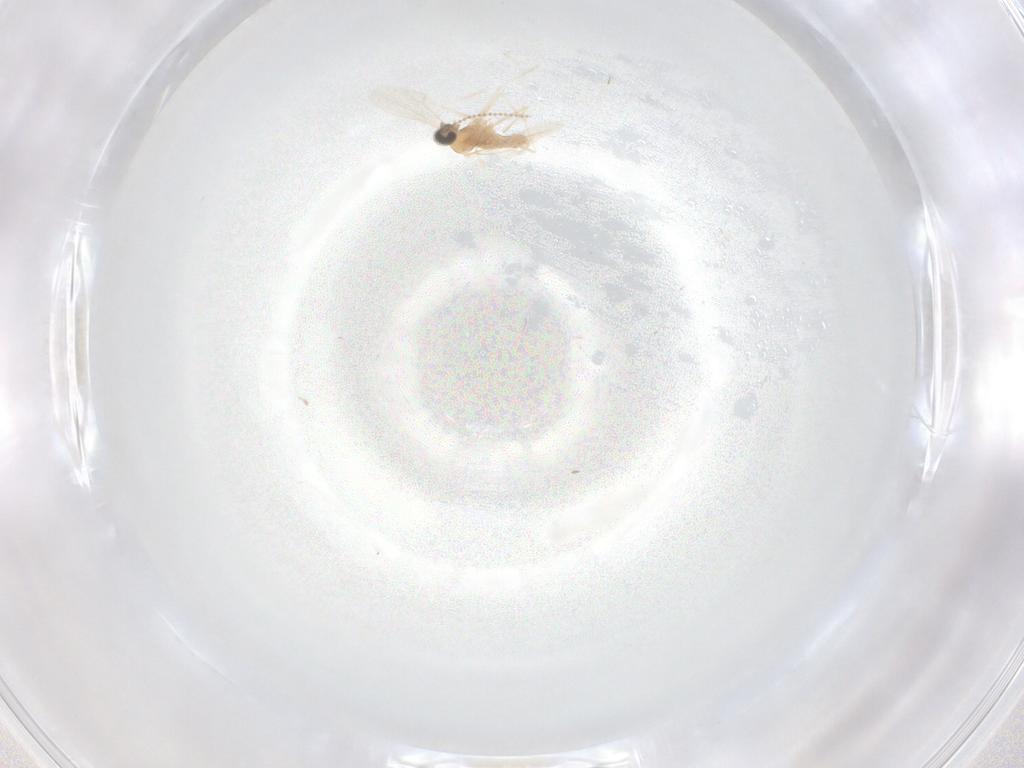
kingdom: Animalia
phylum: Arthropoda
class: Insecta
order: Diptera
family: Cecidomyiidae
